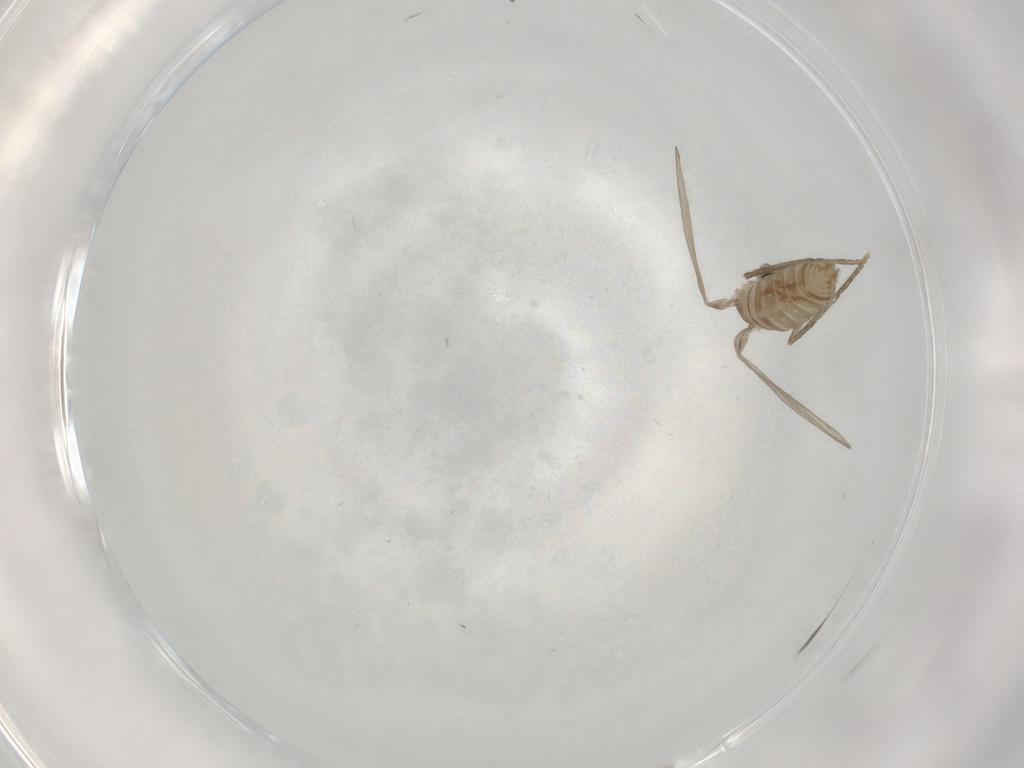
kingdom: Animalia
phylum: Arthropoda
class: Insecta
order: Diptera
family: Psychodidae
